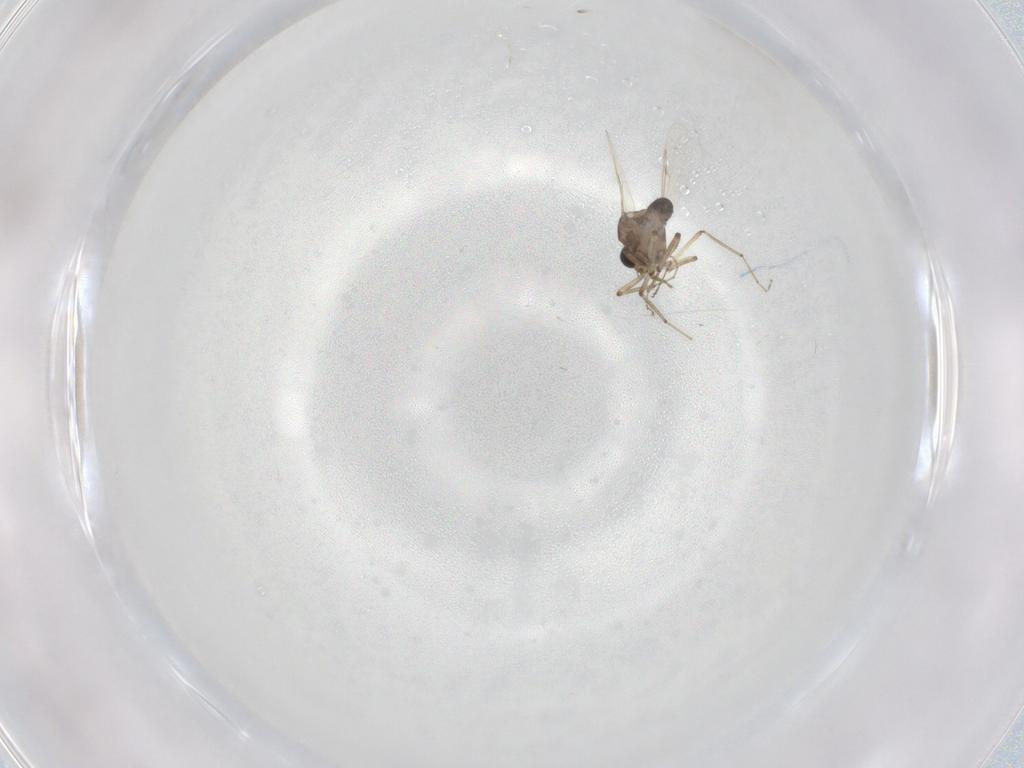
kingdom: Animalia
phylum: Arthropoda
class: Insecta
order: Diptera
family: Ceratopogonidae
